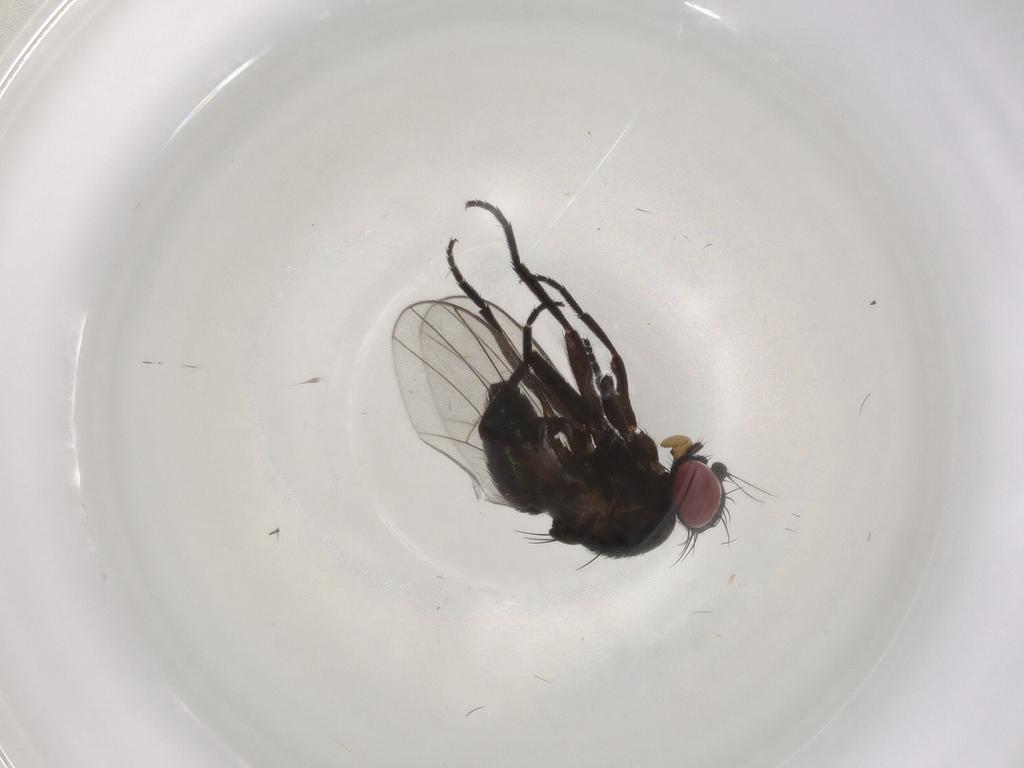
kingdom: Animalia
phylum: Arthropoda
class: Insecta
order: Diptera
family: Agromyzidae
